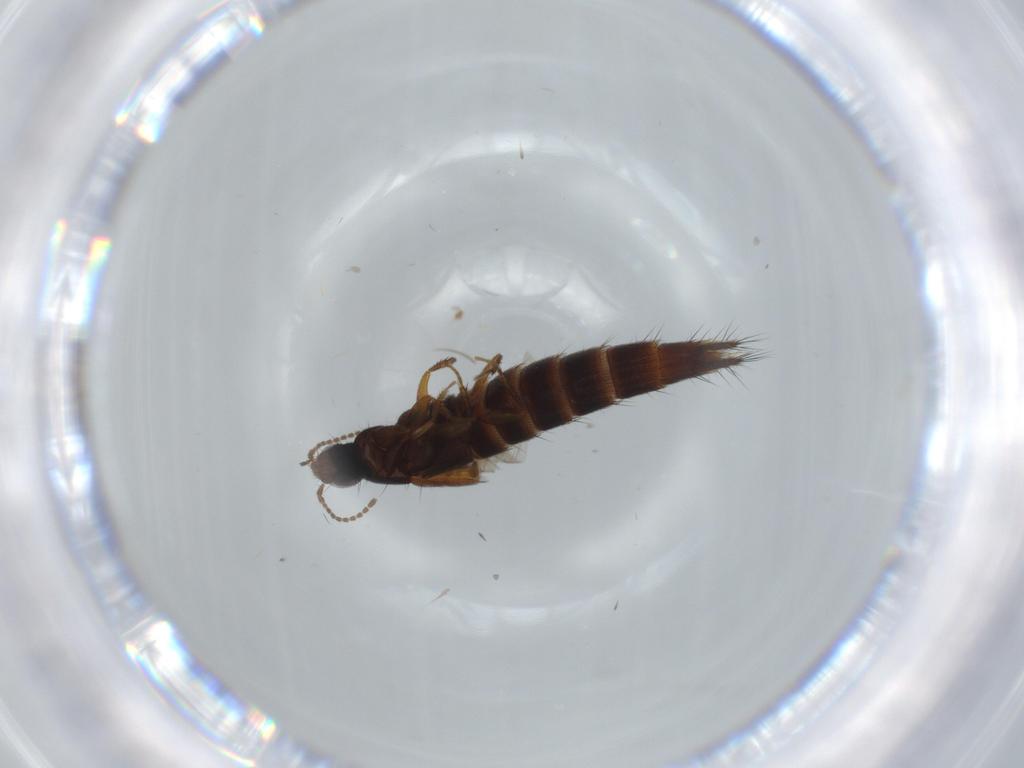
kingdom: Animalia
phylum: Arthropoda
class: Insecta
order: Coleoptera
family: Staphylinidae
